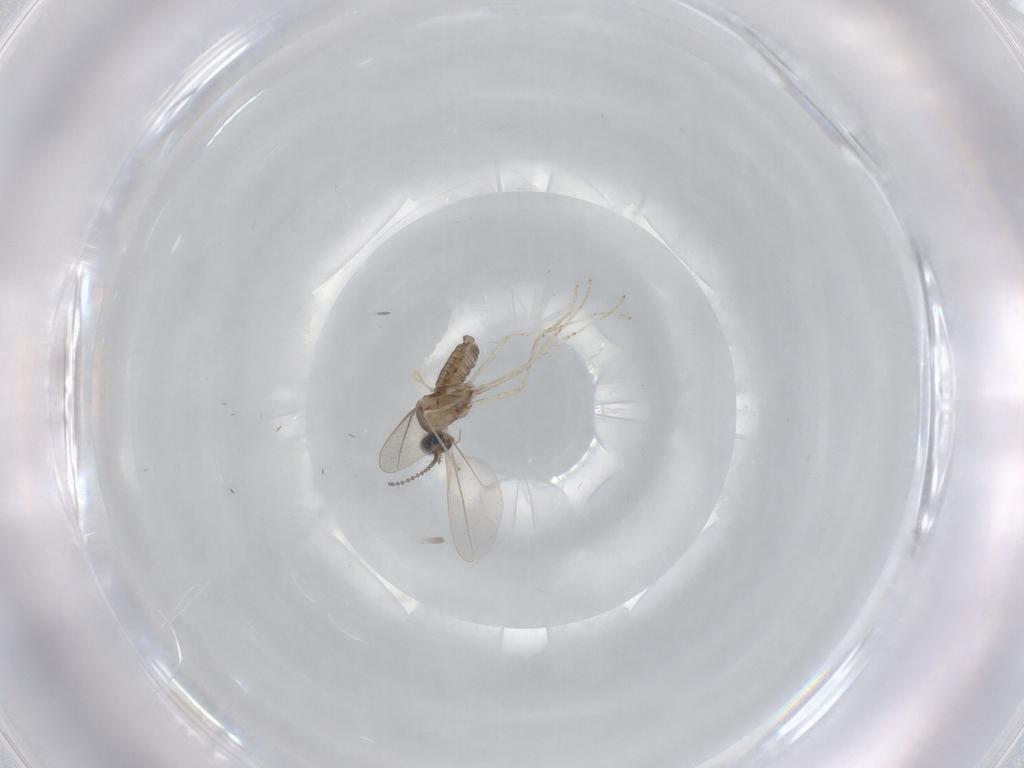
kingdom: Animalia
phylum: Arthropoda
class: Insecta
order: Diptera
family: Cecidomyiidae
